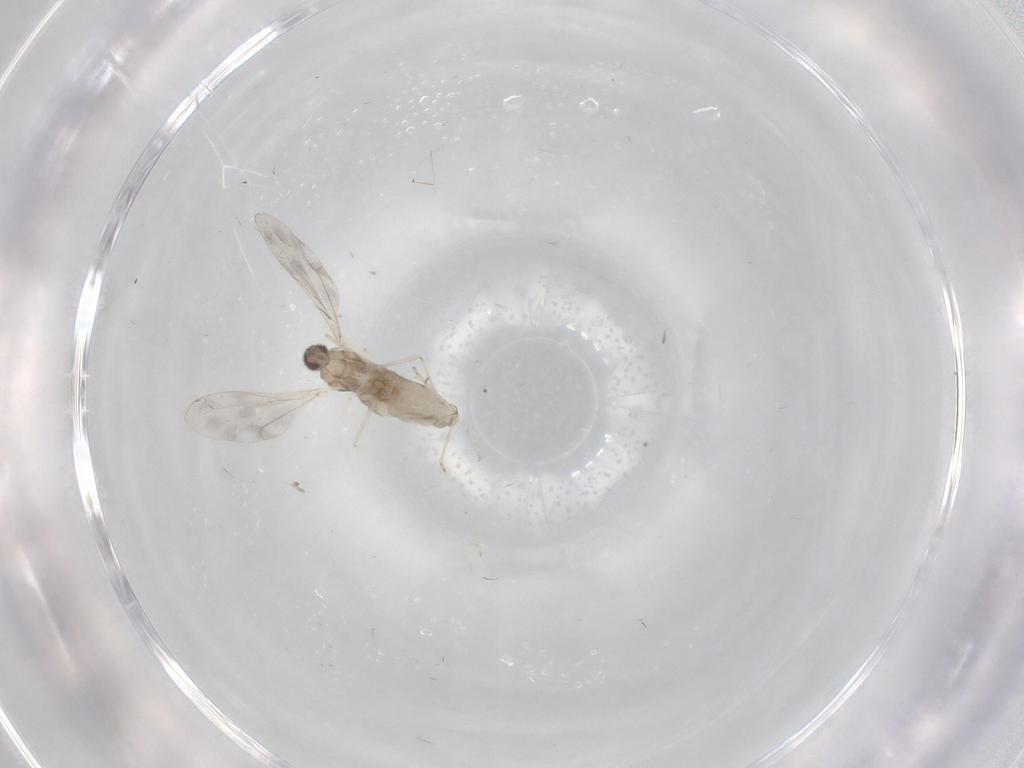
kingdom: Animalia
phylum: Arthropoda
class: Insecta
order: Diptera
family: Cecidomyiidae
